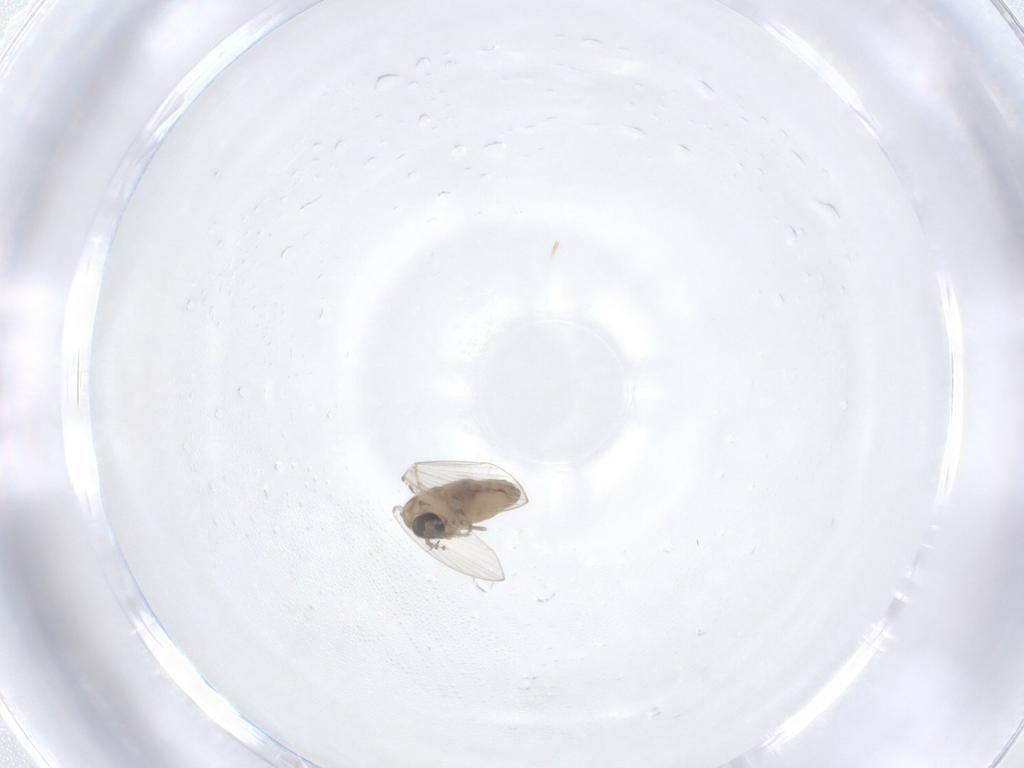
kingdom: Animalia
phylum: Arthropoda
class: Insecta
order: Diptera
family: Psychodidae
